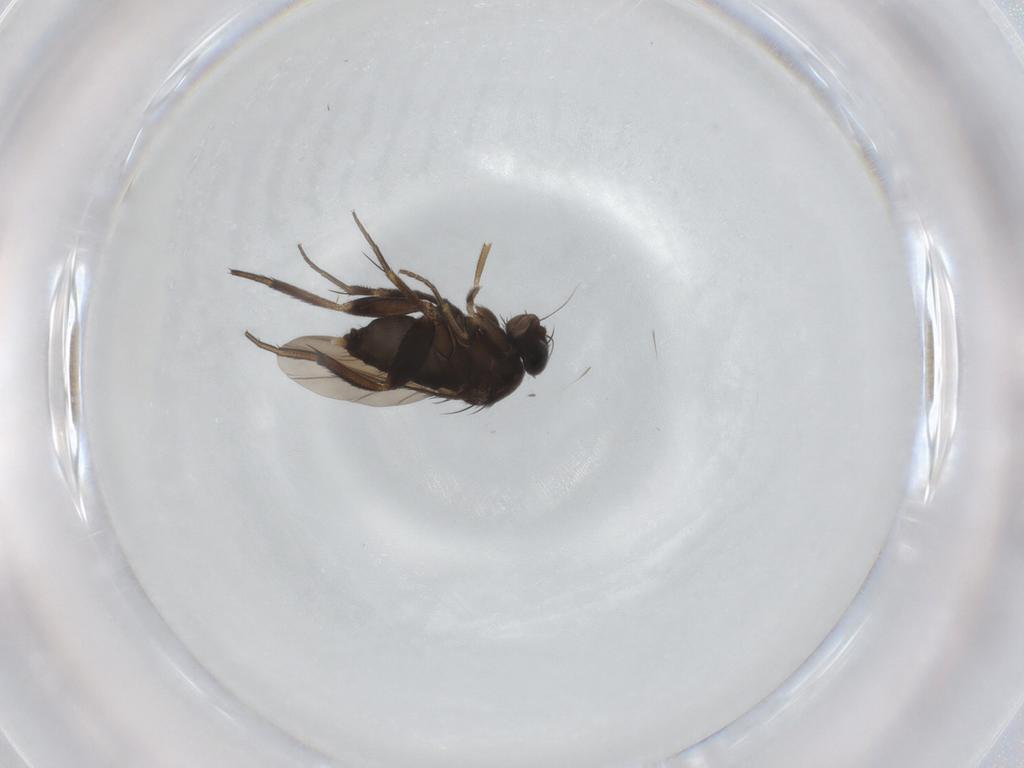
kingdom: Animalia
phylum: Arthropoda
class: Insecta
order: Diptera
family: Phoridae
